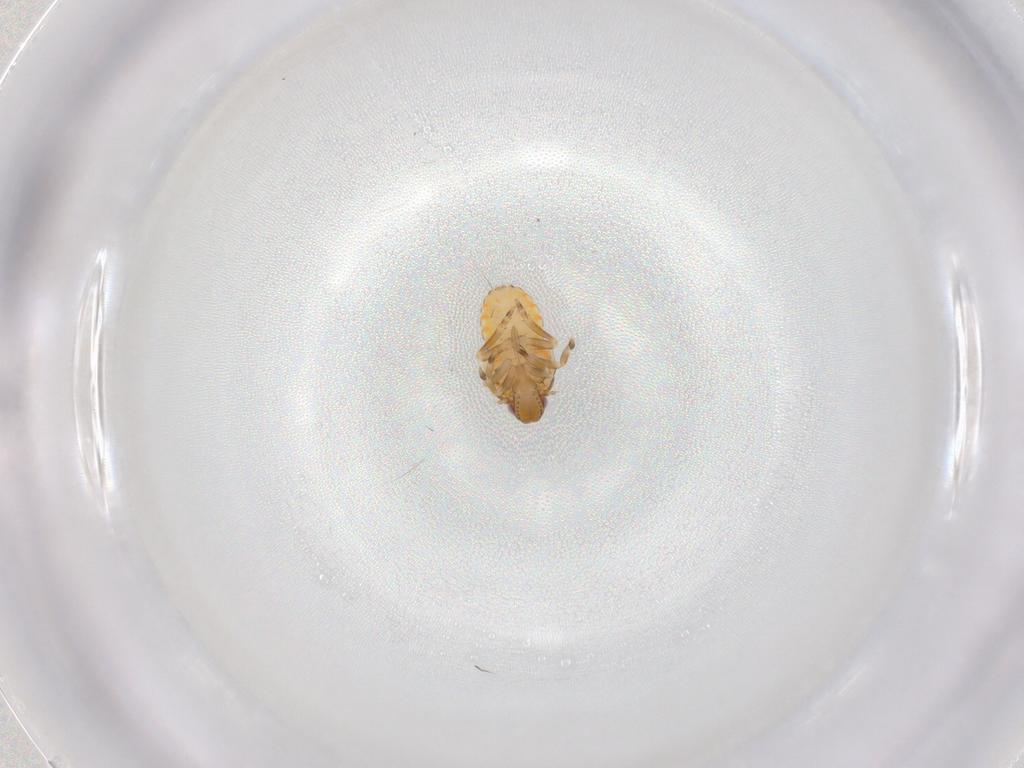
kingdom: Animalia
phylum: Arthropoda
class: Insecta
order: Hemiptera
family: Flatidae
